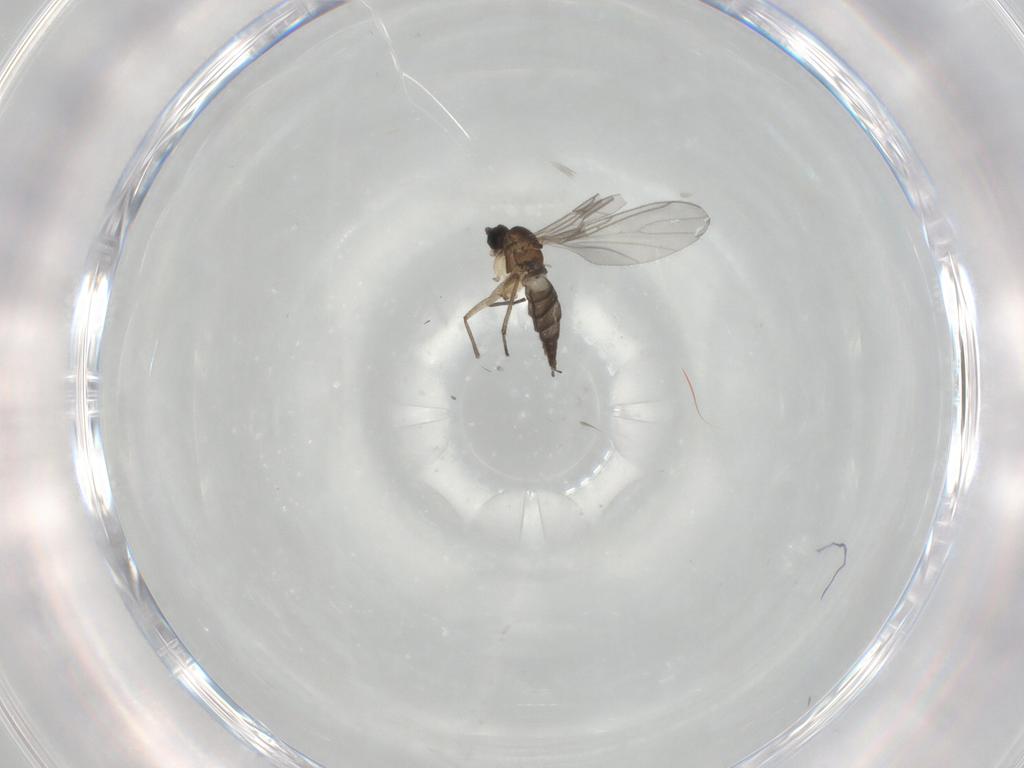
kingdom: Animalia
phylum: Arthropoda
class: Insecta
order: Diptera
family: Sciaridae
